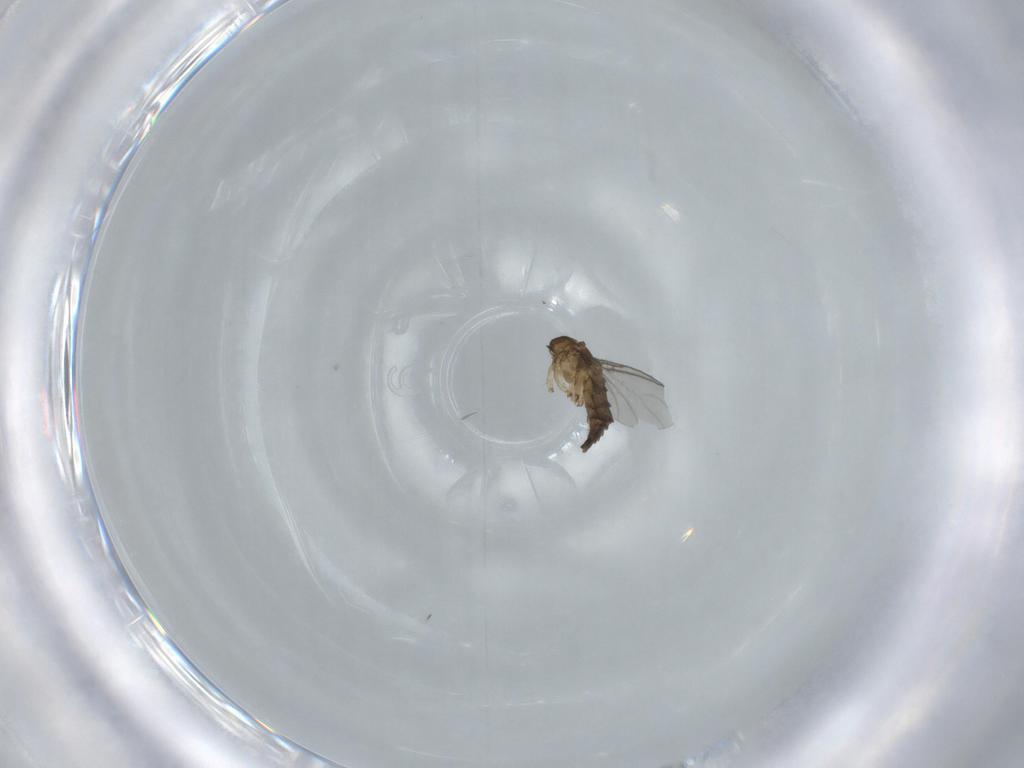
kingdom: Animalia
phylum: Arthropoda
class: Insecta
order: Diptera
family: Sciaridae
